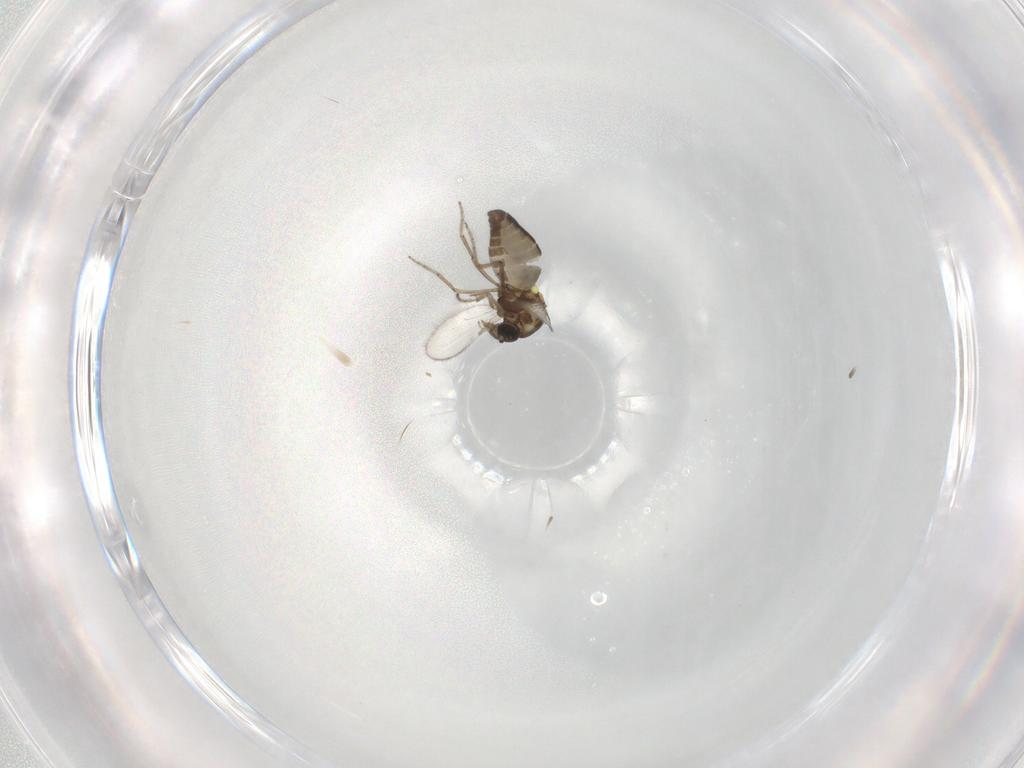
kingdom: Animalia
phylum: Arthropoda
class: Insecta
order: Diptera
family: Ceratopogonidae
